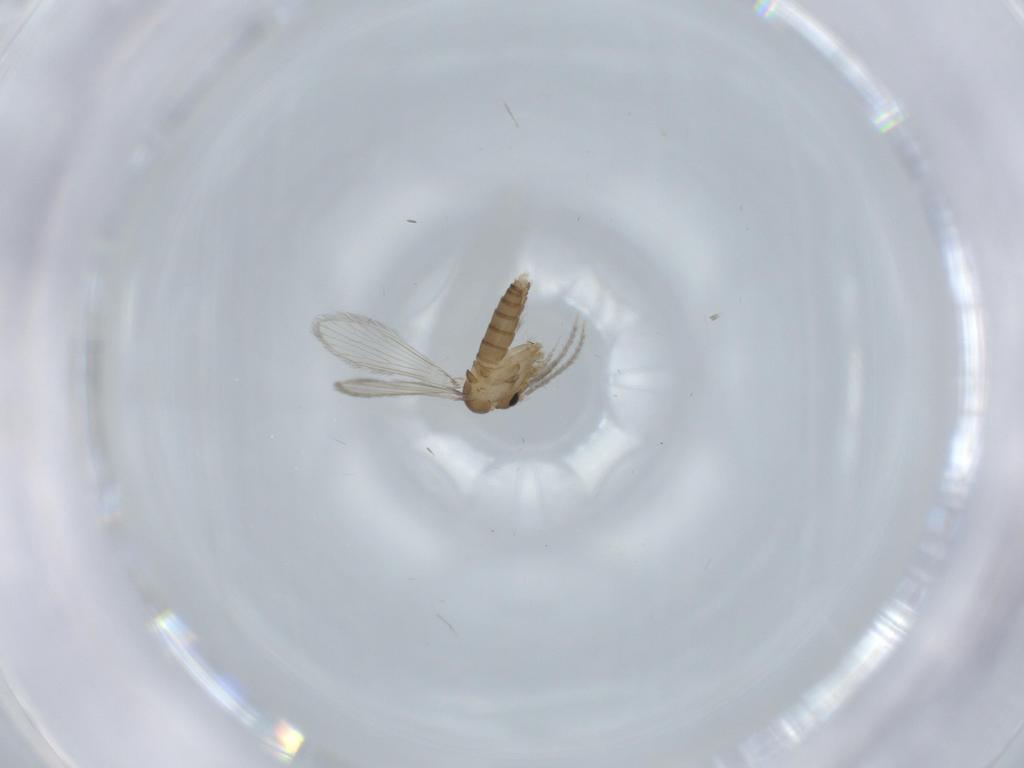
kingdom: Animalia
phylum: Arthropoda
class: Insecta
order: Diptera
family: Psychodidae
